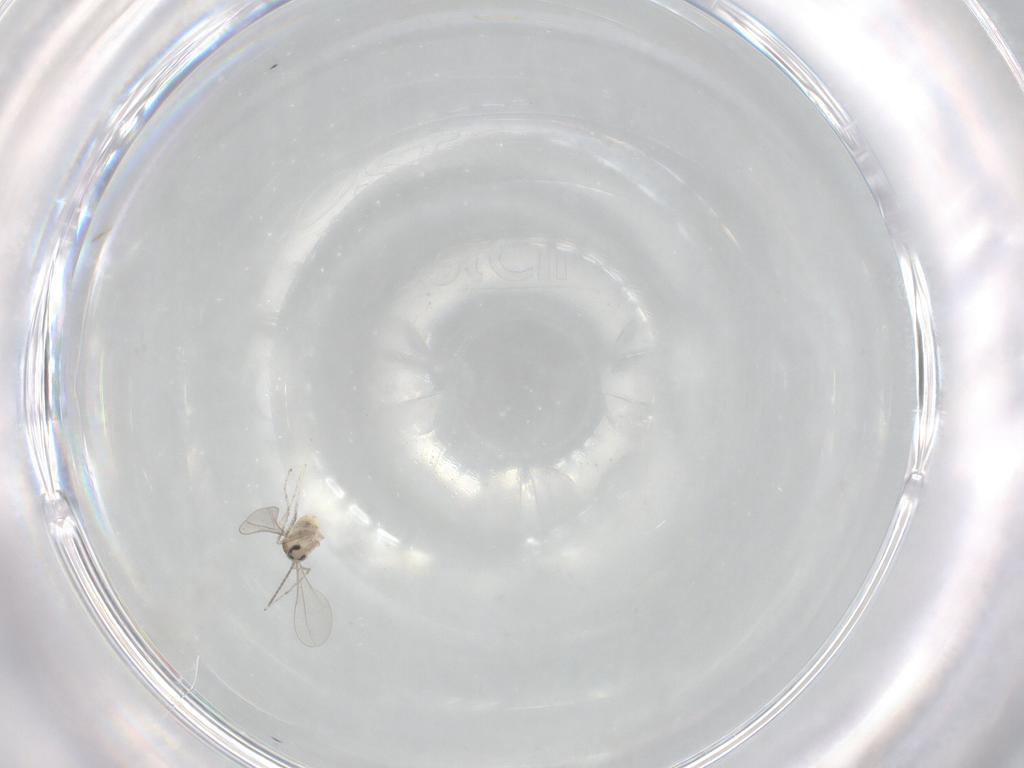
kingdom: Animalia
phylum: Arthropoda
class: Insecta
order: Diptera
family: Cecidomyiidae
